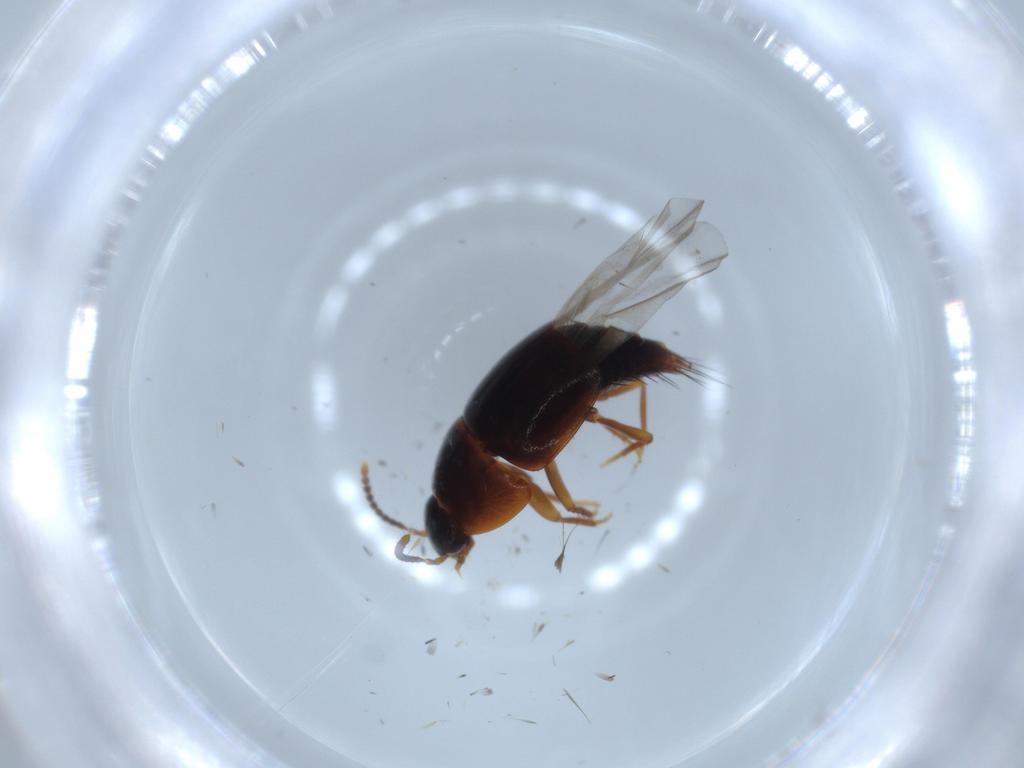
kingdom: Animalia
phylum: Arthropoda
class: Insecta
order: Coleoptera
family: Staphylinidae
